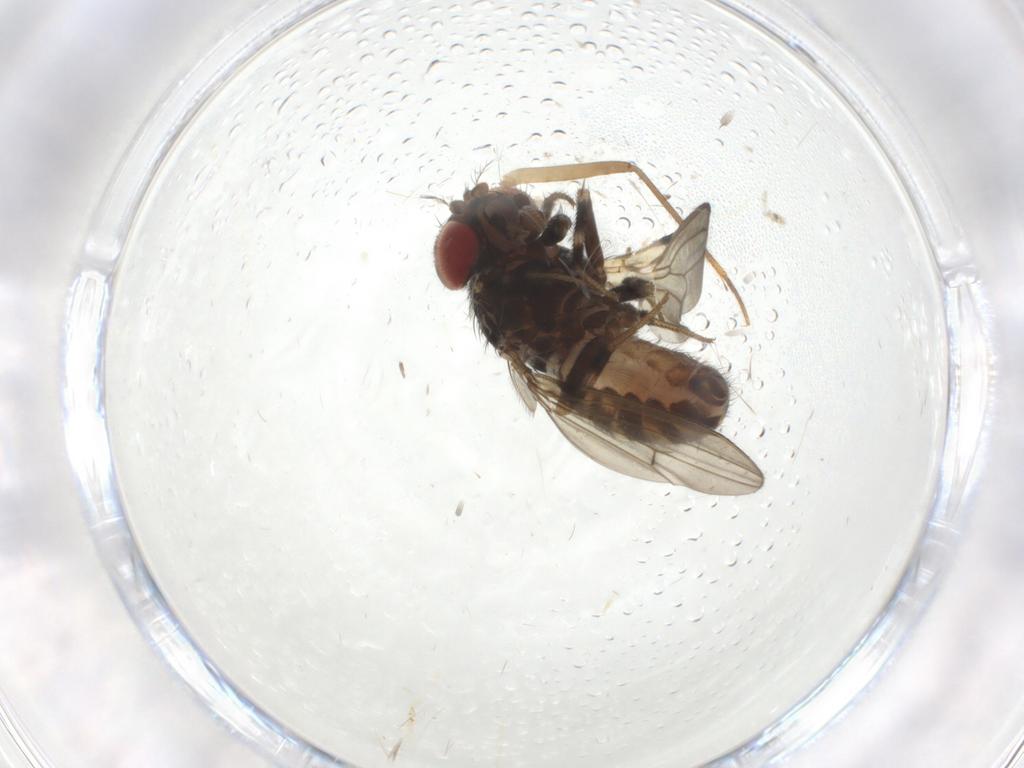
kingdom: Animalia
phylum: Arthropoda
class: Insecta
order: Diptera
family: Drosophilidae
